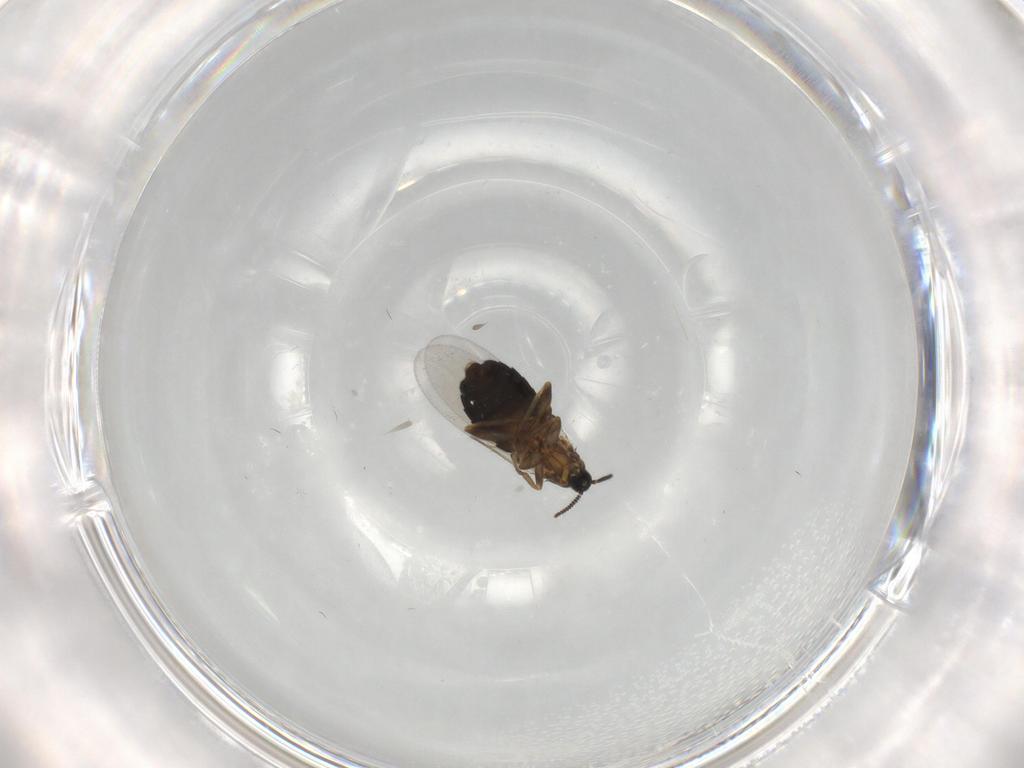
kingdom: Animalia
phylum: Arthropoda
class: Insecta
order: Diptera
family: Scatopsidae
